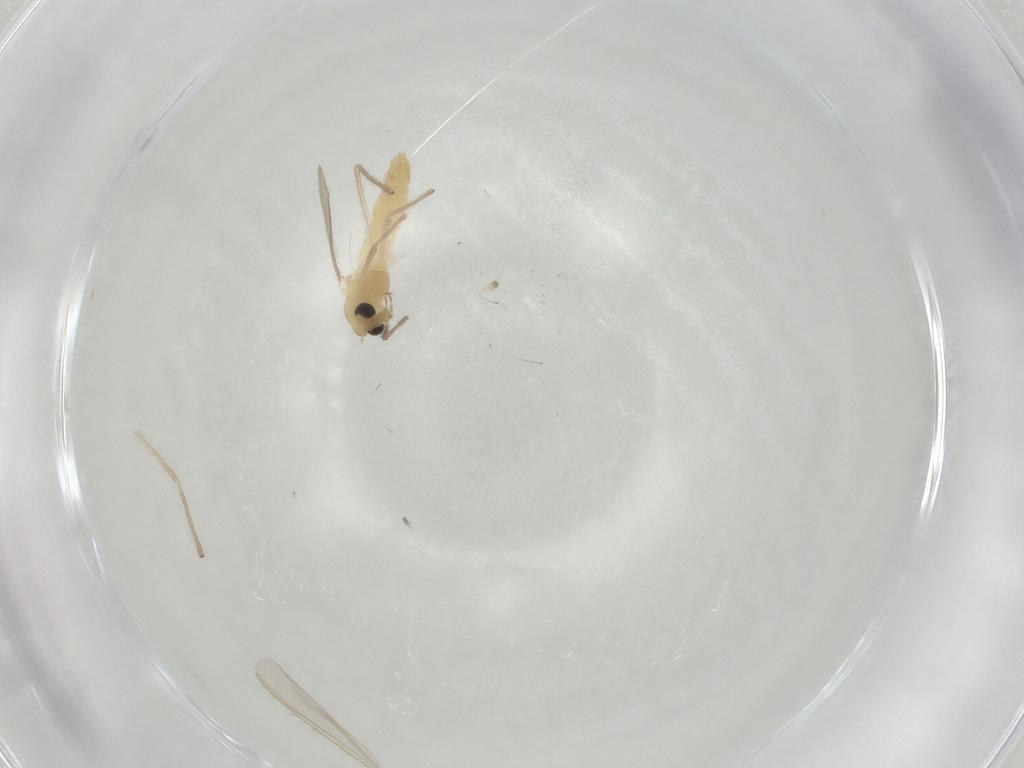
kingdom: Animalia
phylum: Arthropoda
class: Insecta
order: Diptera
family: Chironomidae
